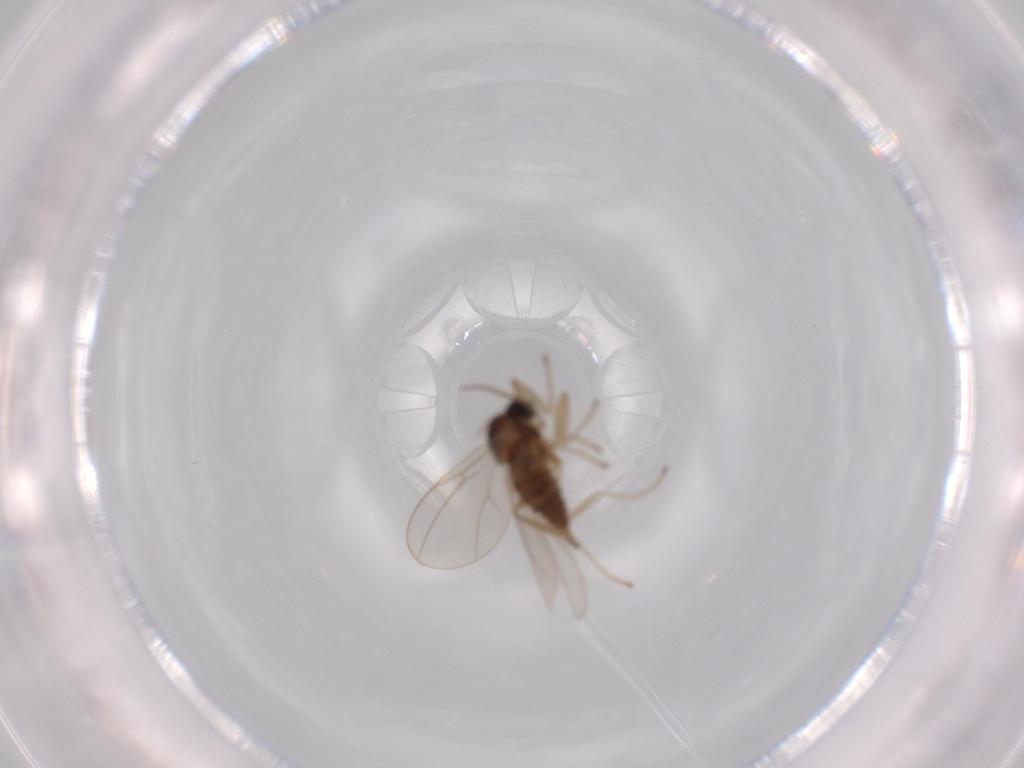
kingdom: Animalia
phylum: Arthropoda
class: Insecta
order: Diptera
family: Cecidomyiidae
